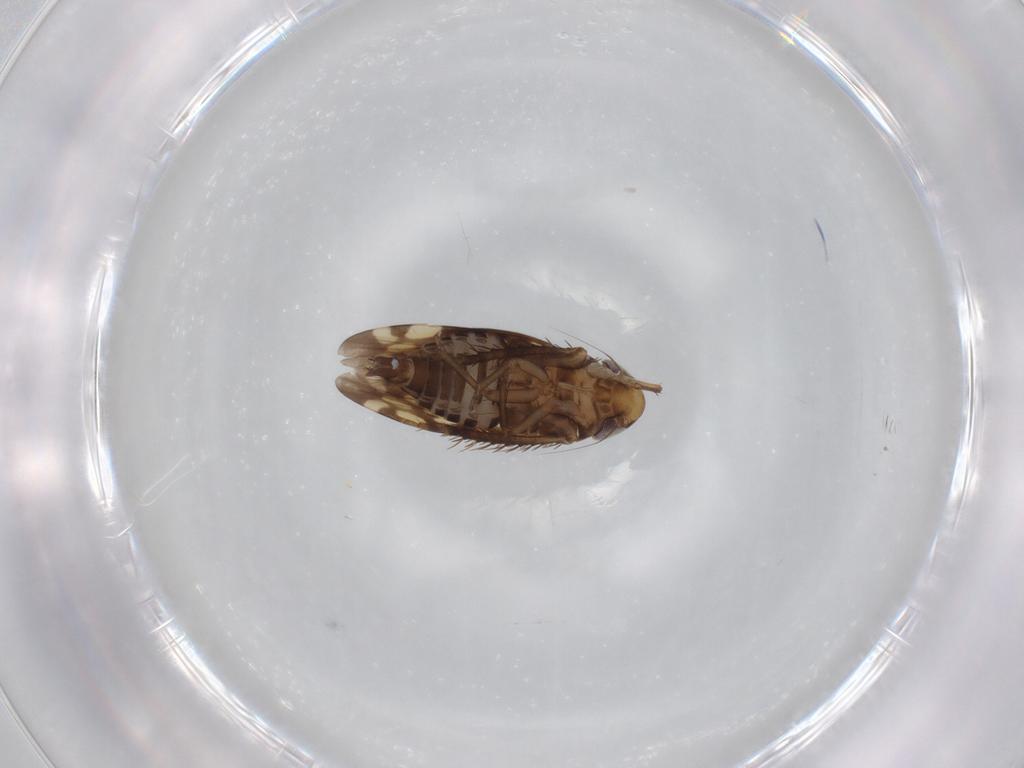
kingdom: Animalia
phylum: Arthropoda
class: Insecta
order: Hemiptera
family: Cicadellidae
